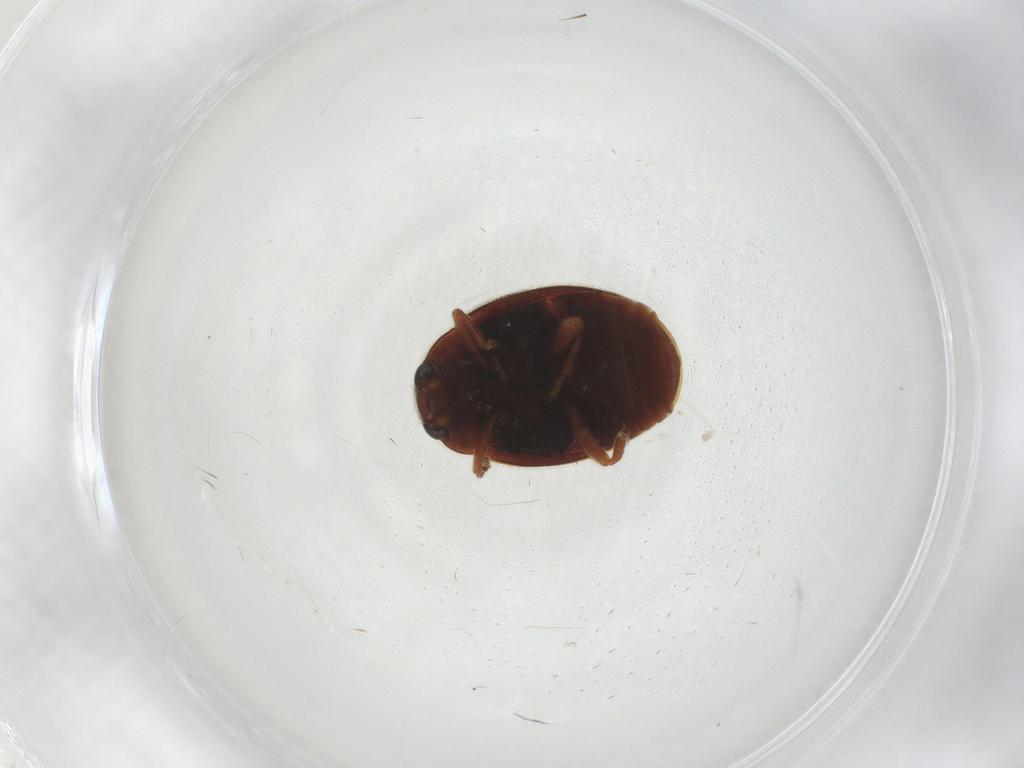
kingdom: Animalia
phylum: Arthropoda
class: Insecta
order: Coleoptera
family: Coccinellidae
